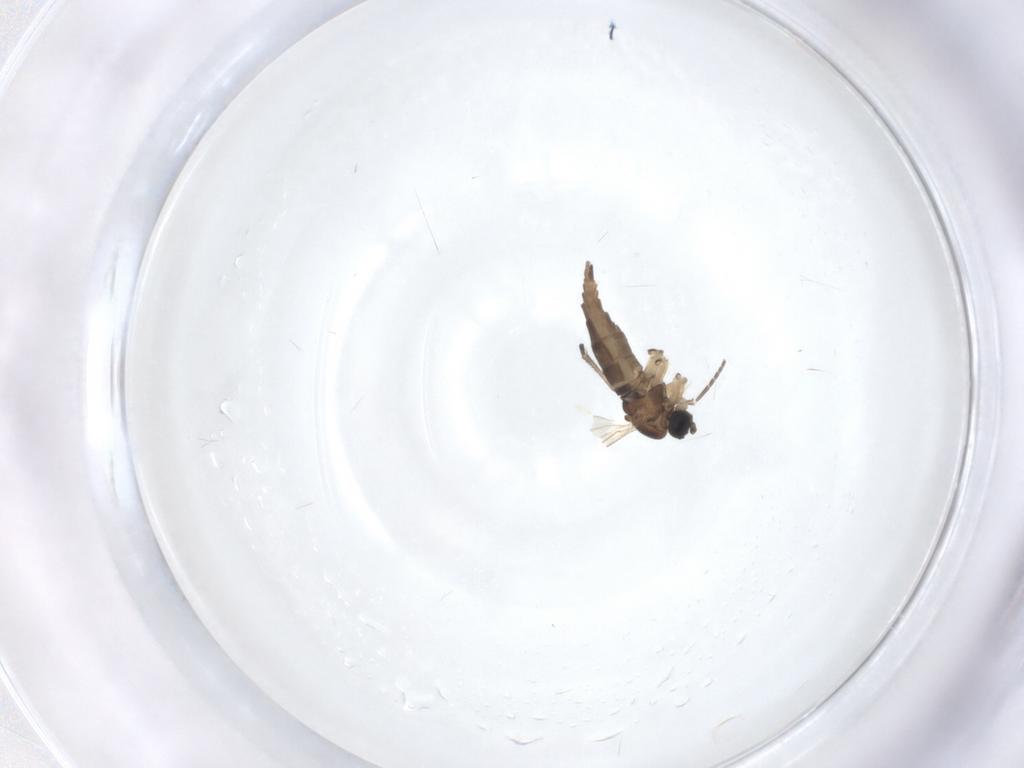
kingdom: Animalia
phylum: Arthropoda
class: Insecta
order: Diptera
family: Sciaridae
